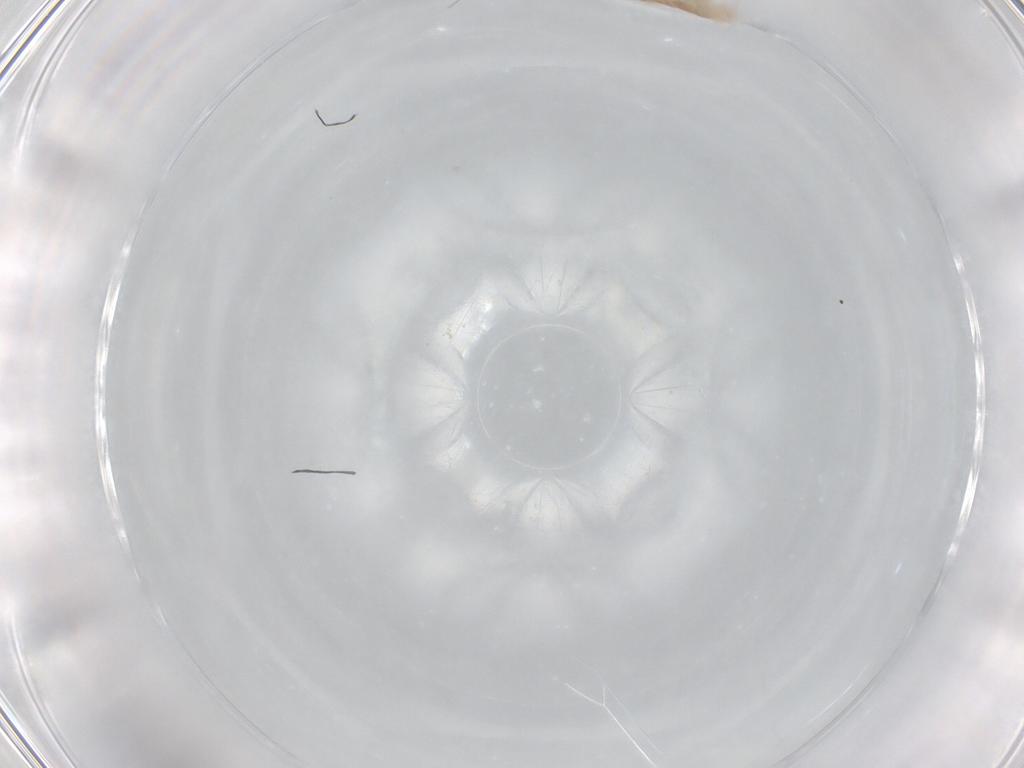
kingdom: Animalia
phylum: Arthropoda
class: Insecta
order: Diptera
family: Chironomidae
